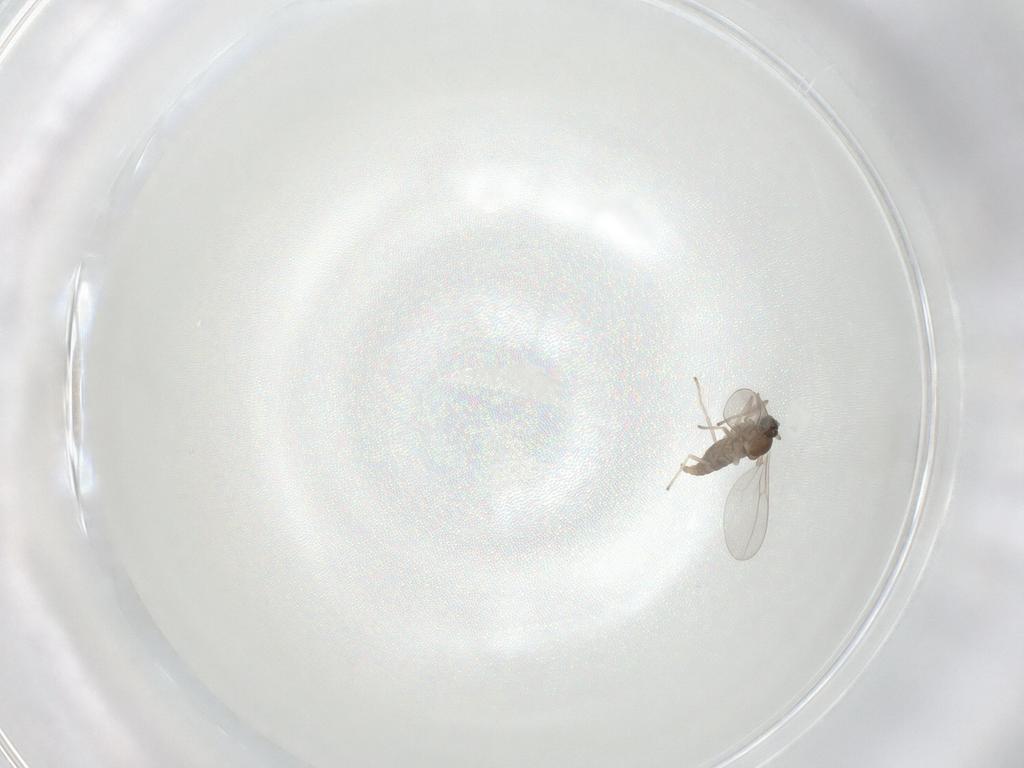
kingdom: Animalia
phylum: Arthropoda
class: Insecta
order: Diptera
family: Cecidomyiidae
